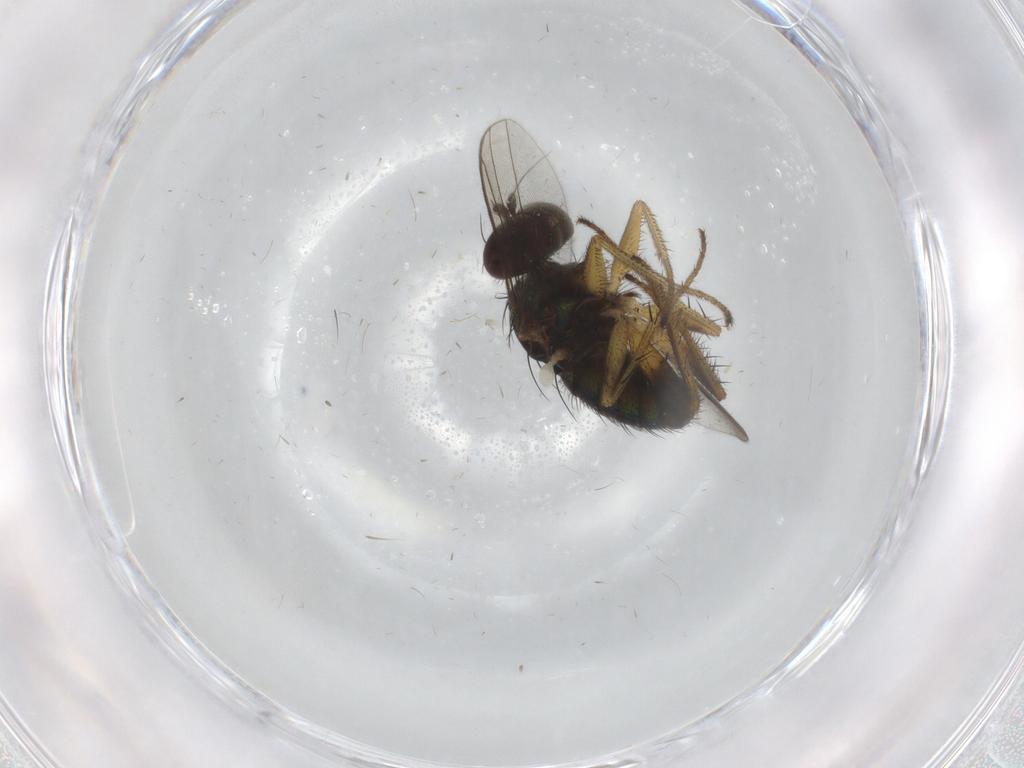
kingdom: Animalia
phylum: Arthropoda
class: Insecta
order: Diptera
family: Dolichopodidae
